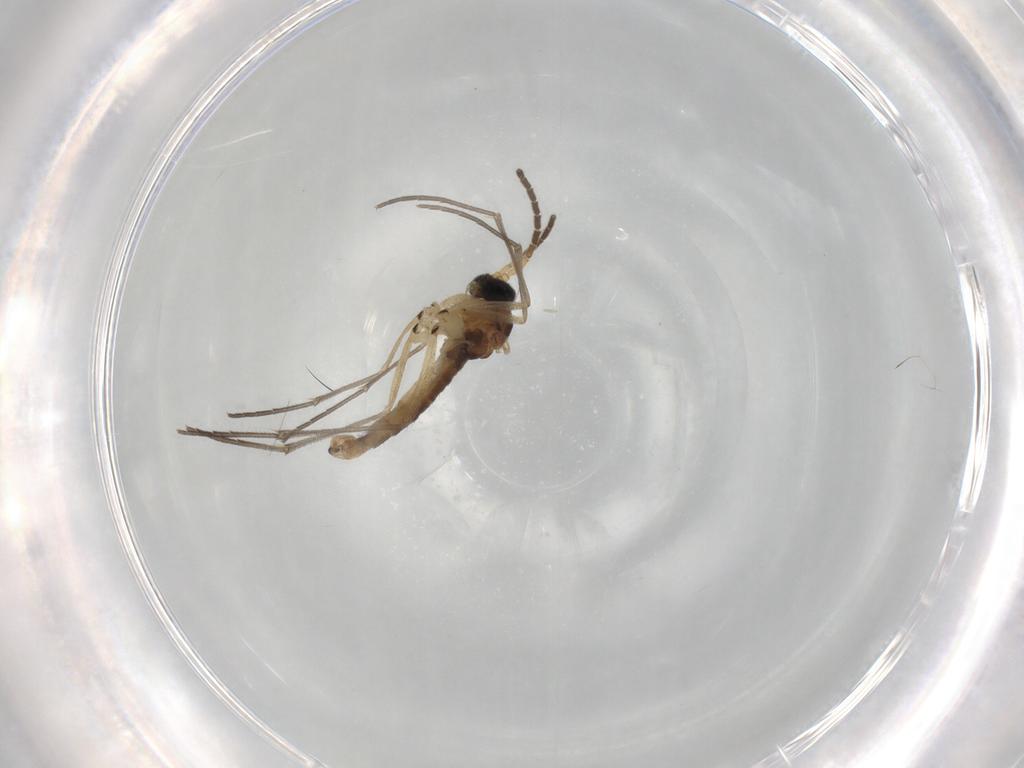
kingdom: Animalia
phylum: Arthropoda
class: Insecta
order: Diptera
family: Sciaridae
